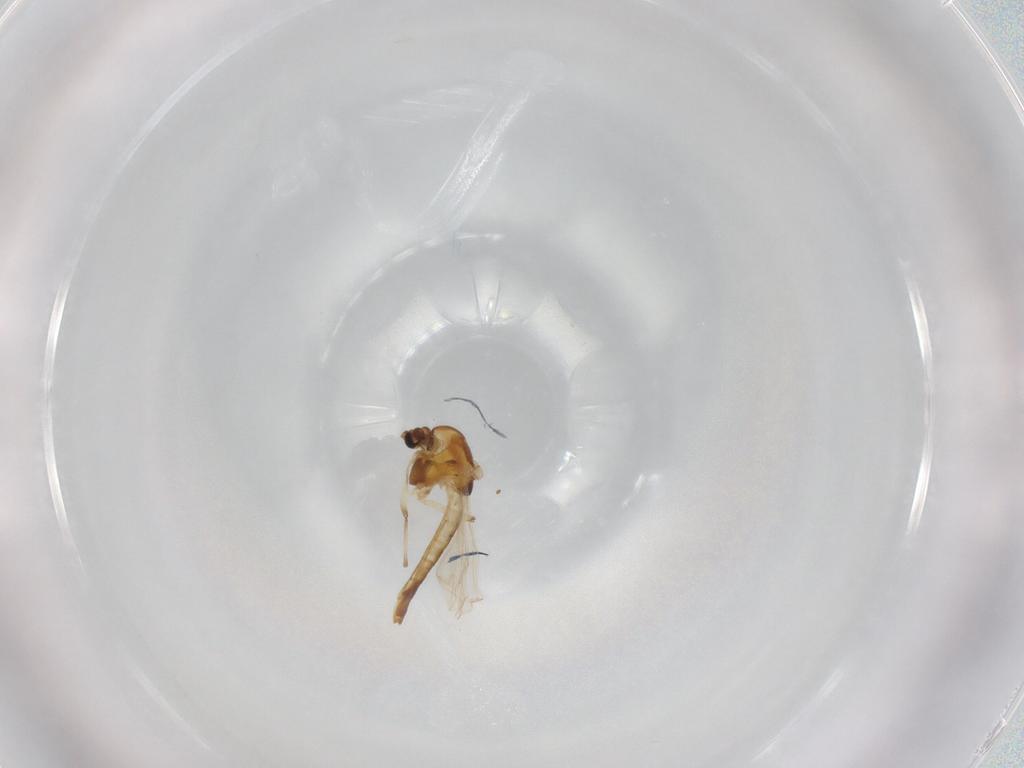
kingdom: Animalia
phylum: Arthropoda
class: Insecta
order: Diptera
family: Chironomidae
